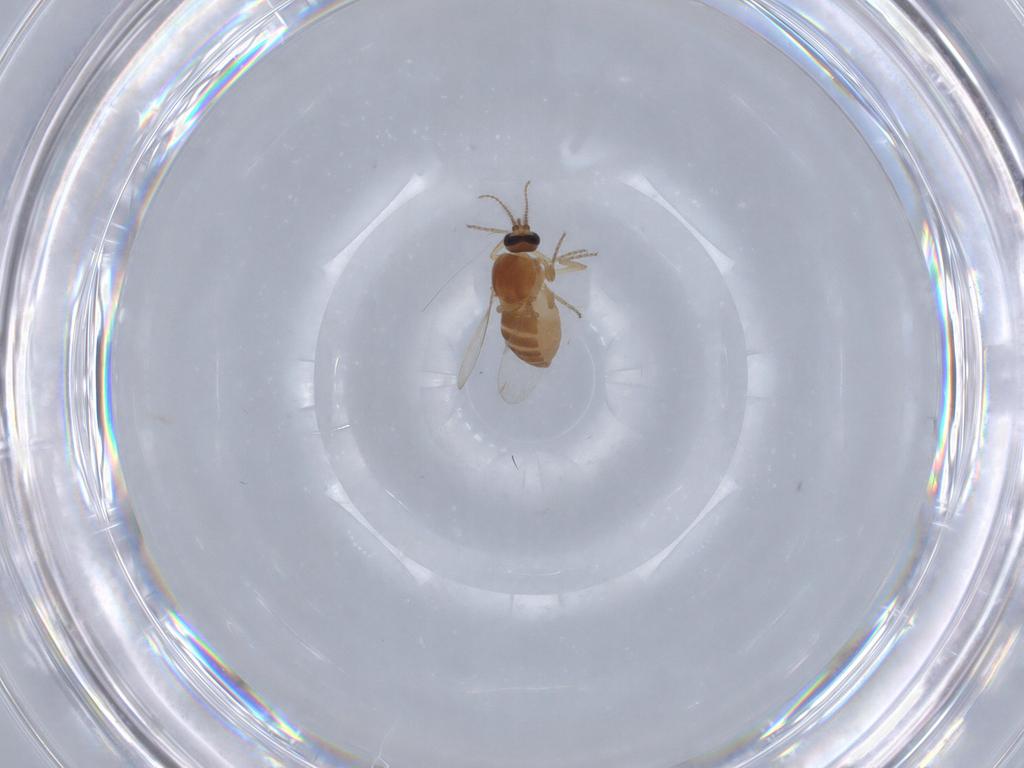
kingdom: Animalia
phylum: Arthropoda
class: Insecta
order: Diptera
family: Ceratopogonidae
